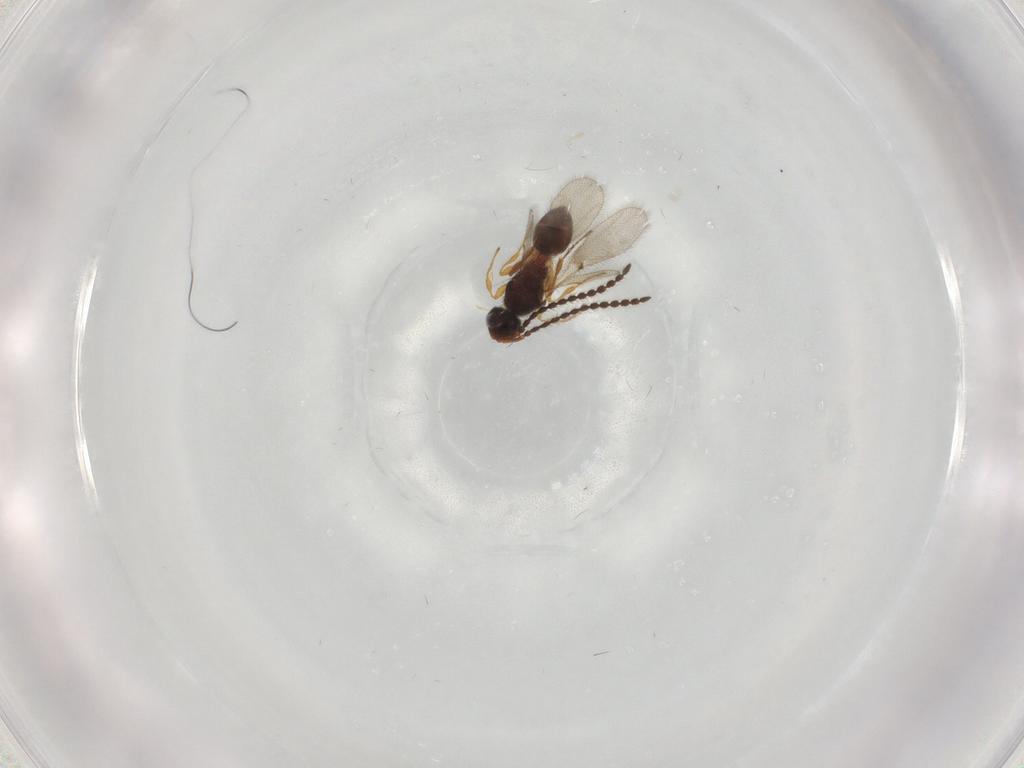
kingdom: Animalia
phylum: Arthropoda
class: Insecta
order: Hymenoptera
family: Diapriidae
